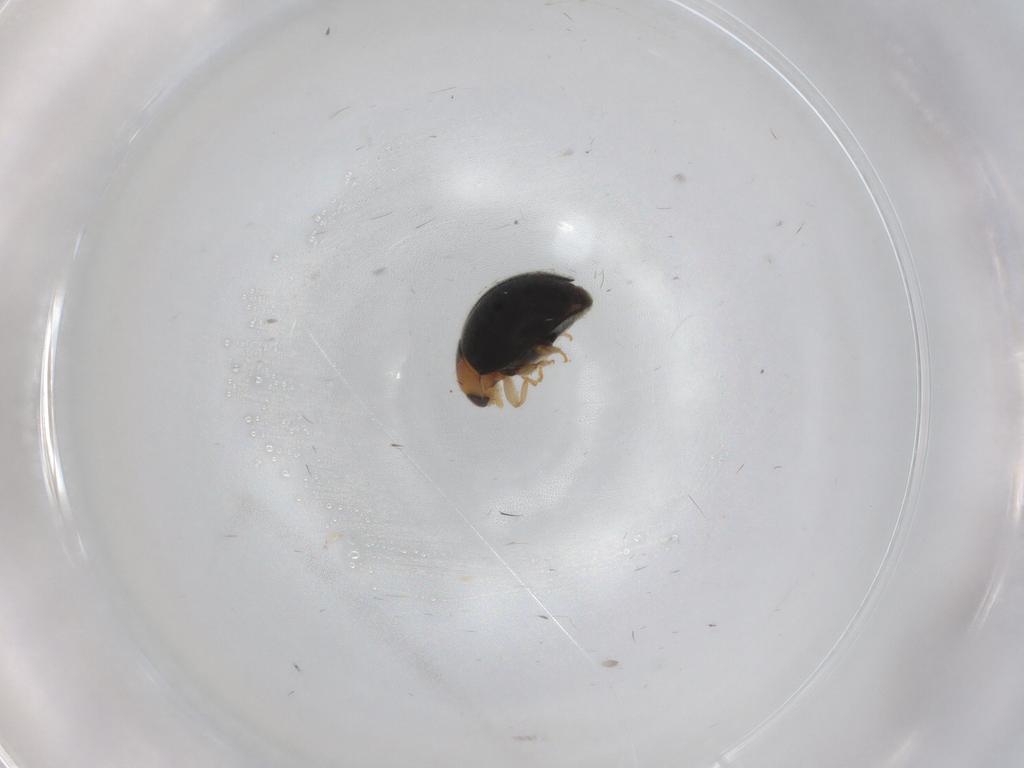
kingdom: Animalia
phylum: Arthropoda
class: Insecta
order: Coleoptera
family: Coccinellidae
